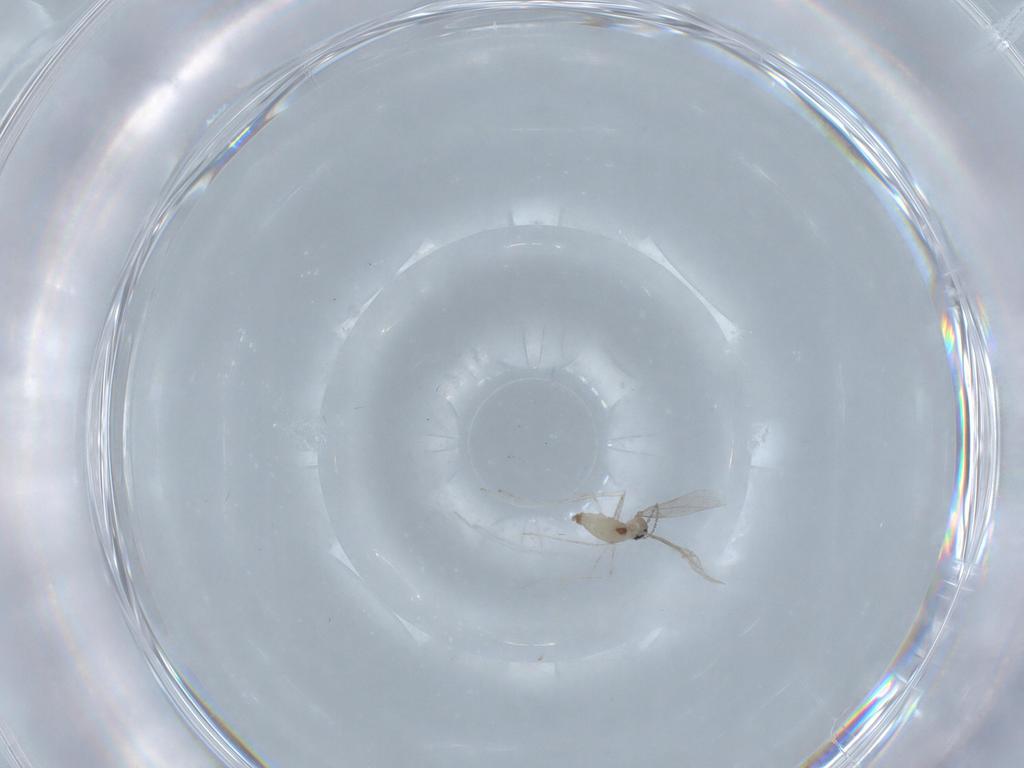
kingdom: Animalia
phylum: Arthropoda
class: Insecta
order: Diptera
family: Cecidomyiidae
